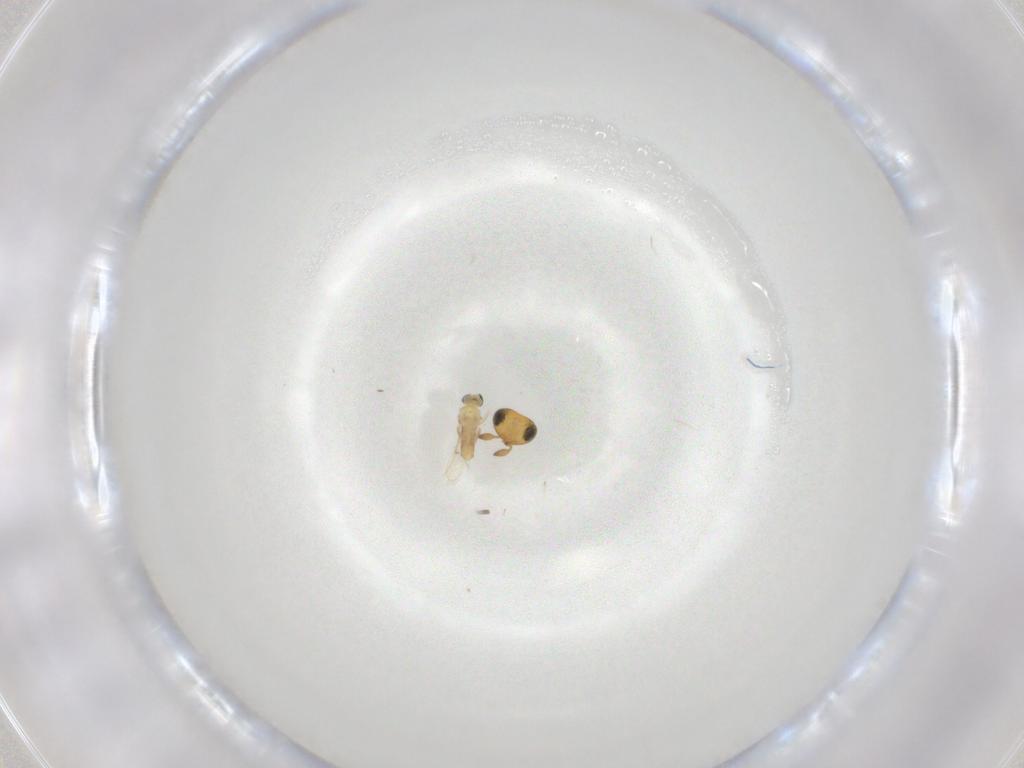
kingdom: Animalia
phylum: Arthropoda
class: Insecta
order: Hymenoptera
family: Scelionidae
